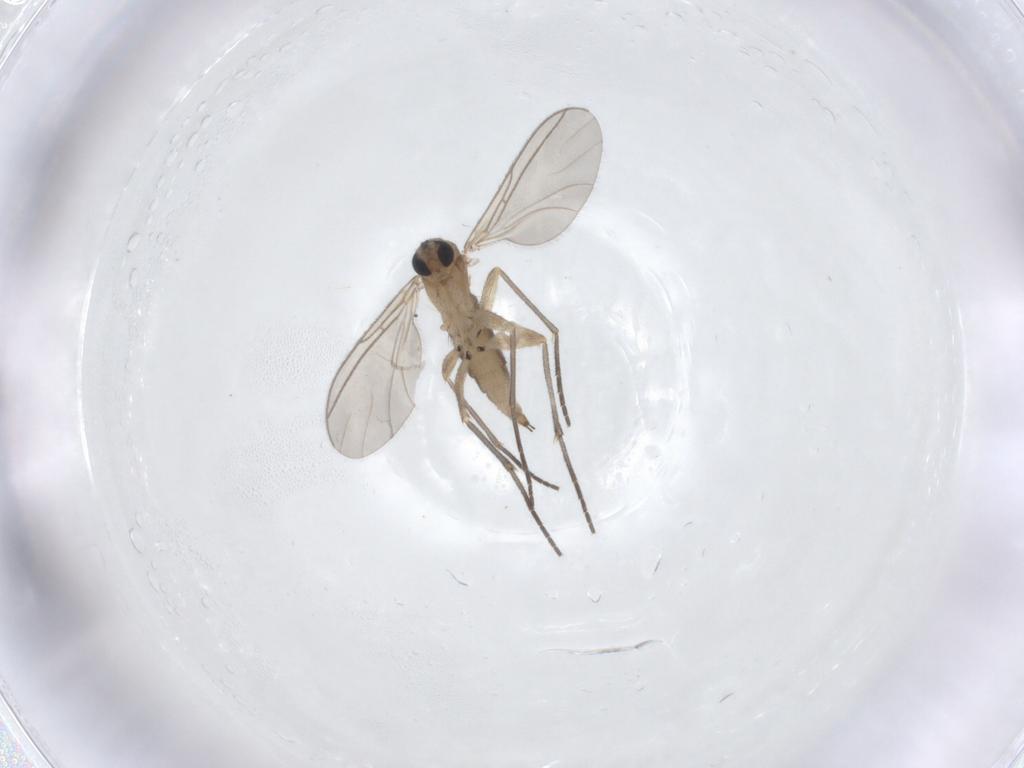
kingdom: Animalia
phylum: Arthropoda
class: Insecta
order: Diptera
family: Sciaridae
